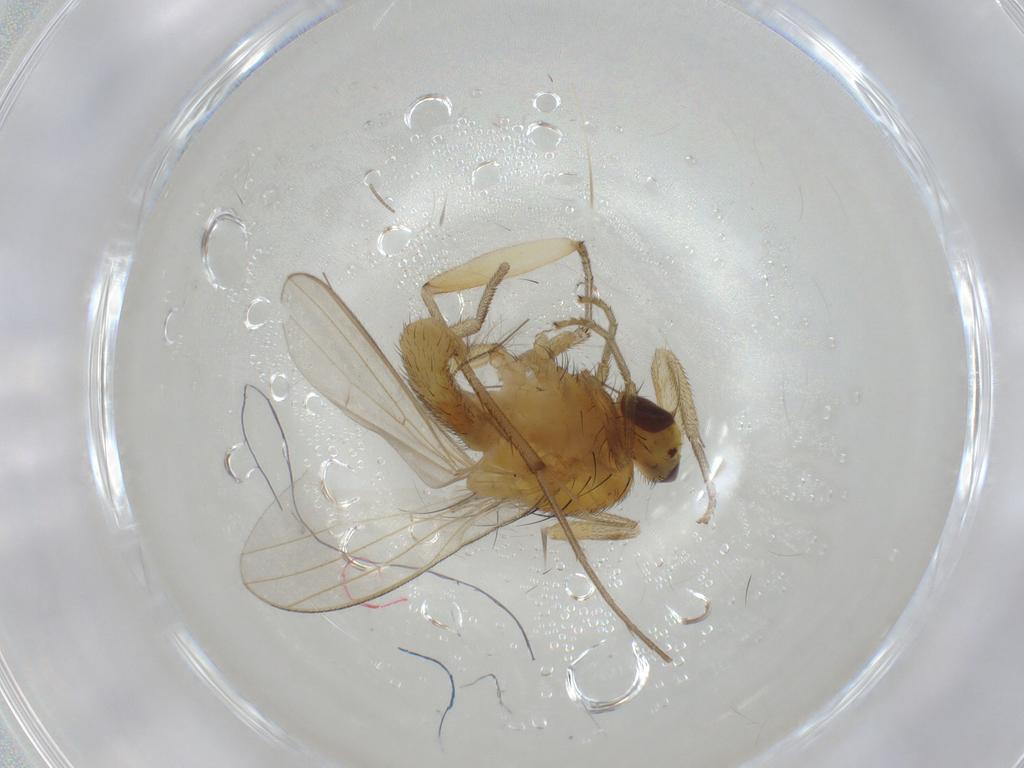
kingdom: Animalia
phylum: Arthropoda
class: Insecta
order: Diptera
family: Mycetophilidae
